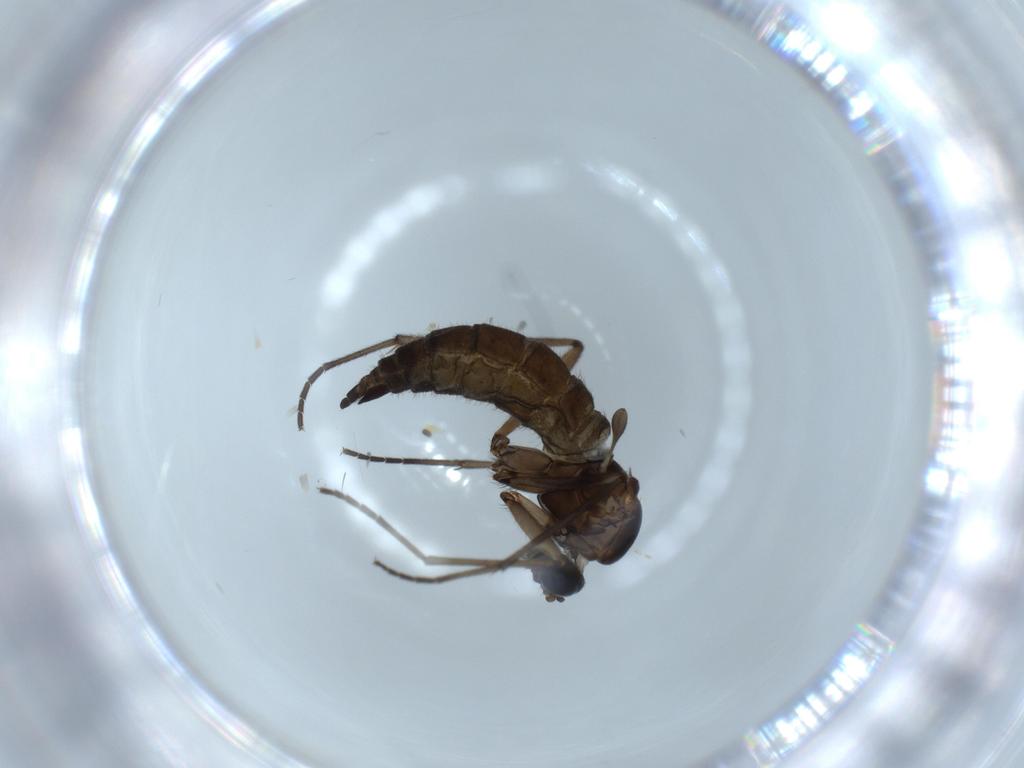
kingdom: Animalia
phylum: Arthropoda
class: Insecta
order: Diptera
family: Sciaridae
